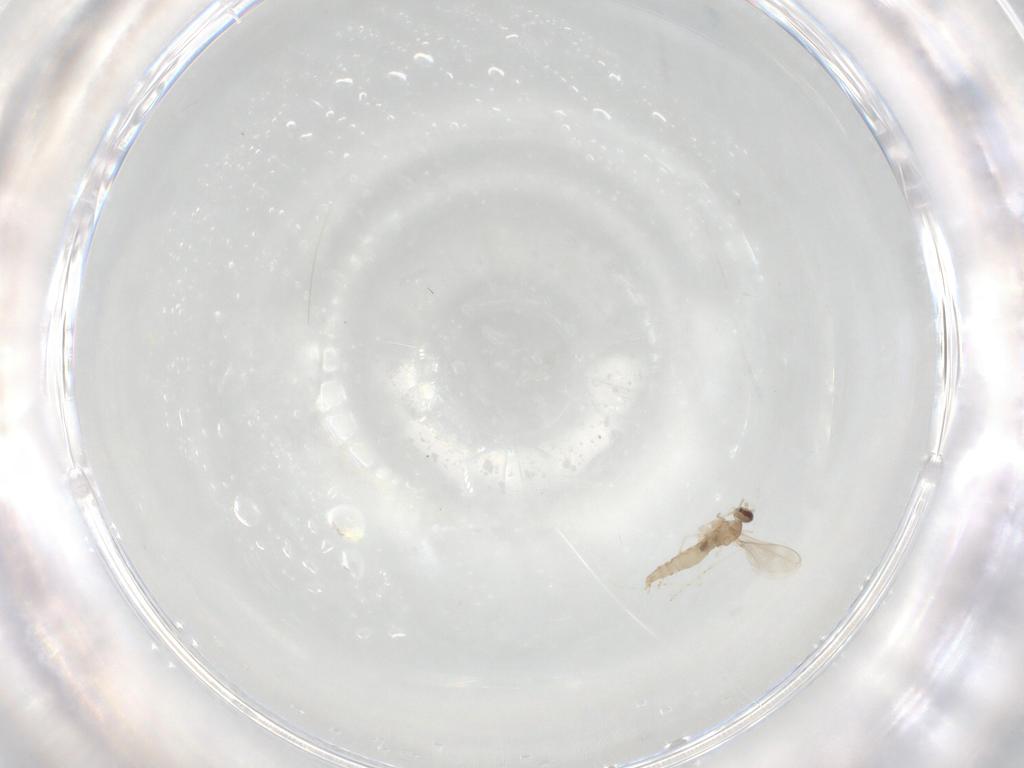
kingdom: Animalia
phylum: Arthropoda
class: Insecta
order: Diptera
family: Cecidomyiidae
